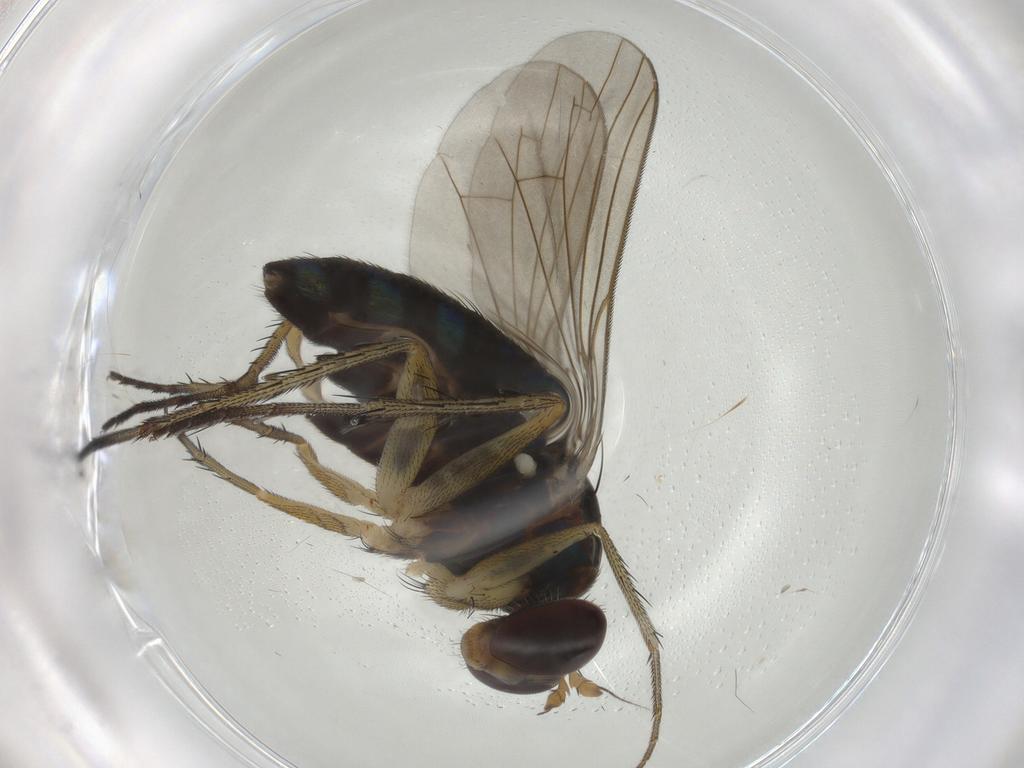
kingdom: Animalia
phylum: Arthropoda
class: Insecta
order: Diptera
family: Dolichopodidae
